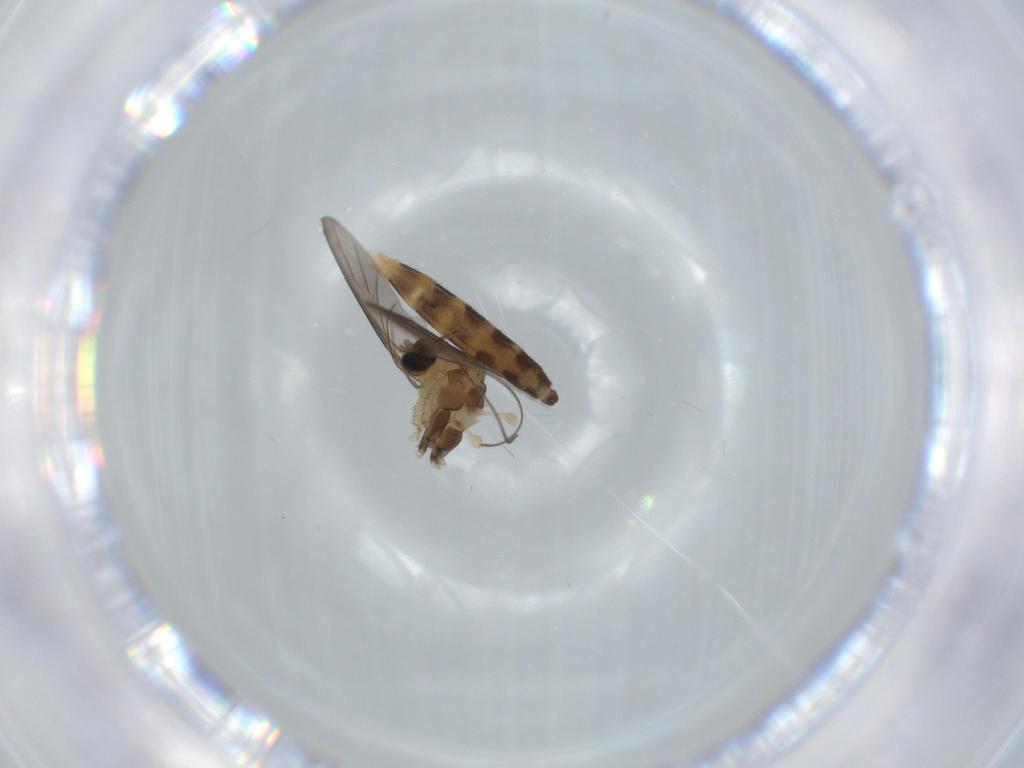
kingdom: Animalia
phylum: Arthropoda
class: Insecta
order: Diptera
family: Keroplatidae
